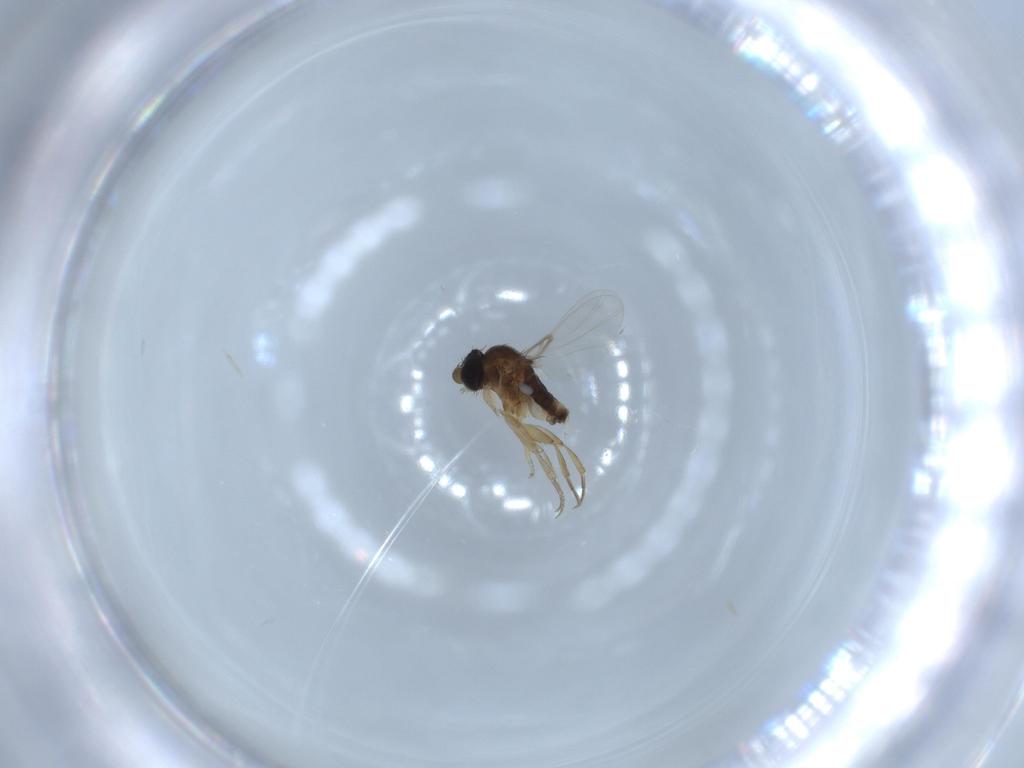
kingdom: Animalia
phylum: Arthropoda
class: Insecta
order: Diptera
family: Phoridae
